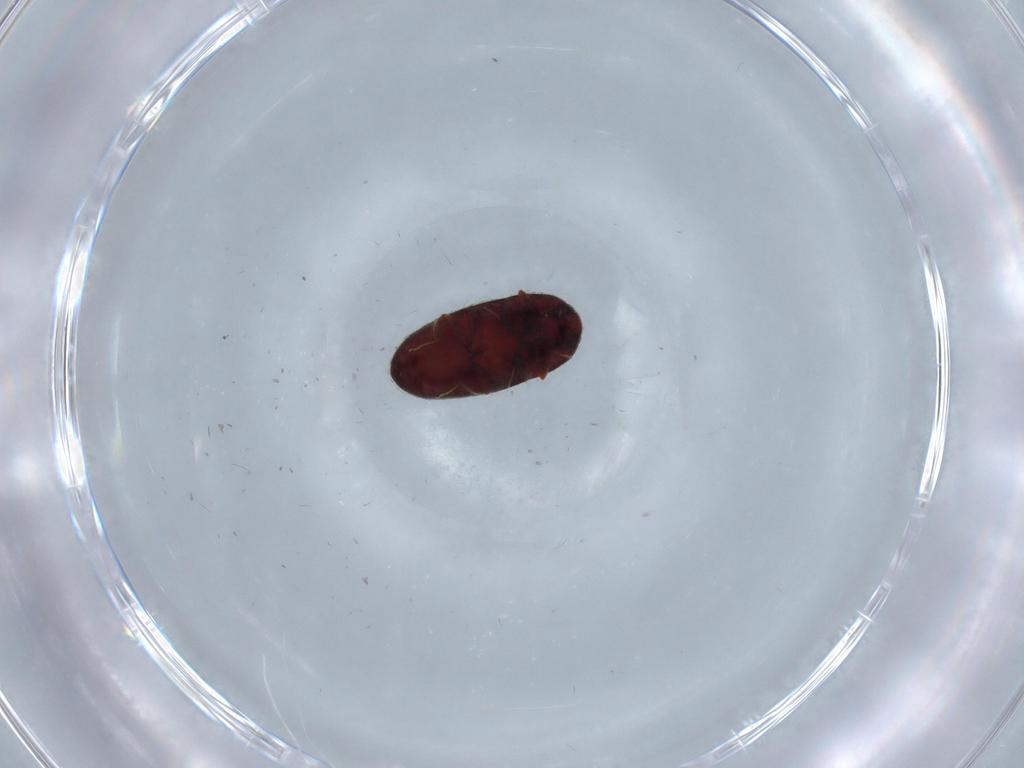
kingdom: Animalia
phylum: Arthropoda
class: Insecta
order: Coleoptera
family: Throscidae
